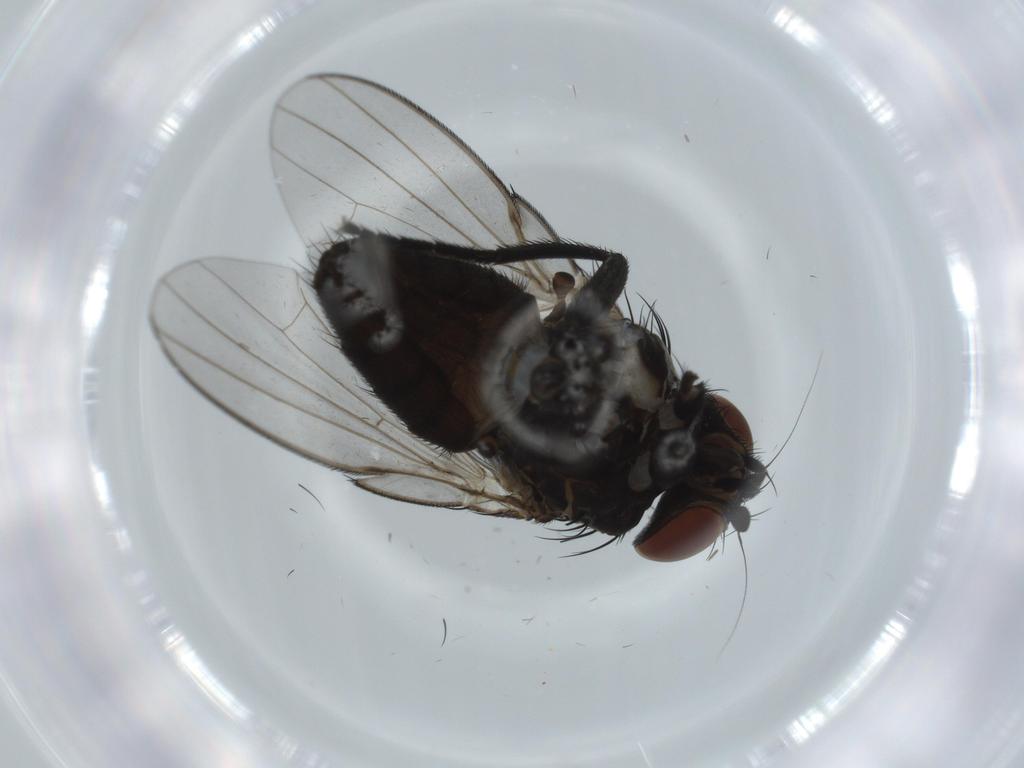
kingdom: Animalia
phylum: Arthropoda
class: Insecta
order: Diptera
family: Milichiidae
